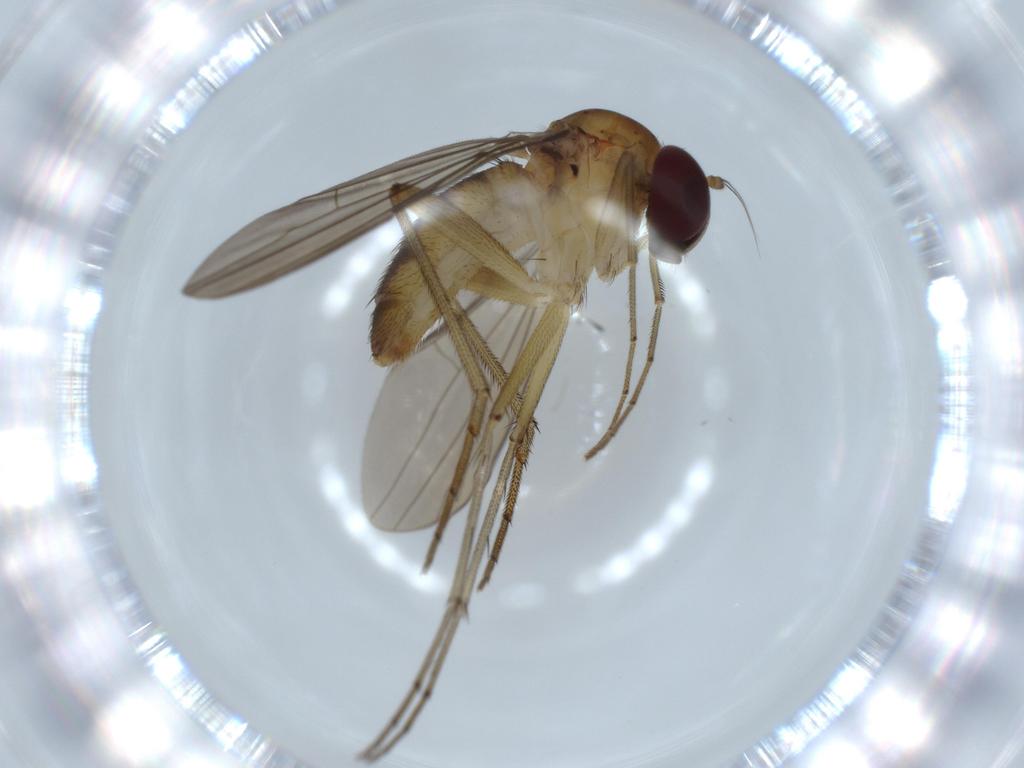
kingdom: Animalia
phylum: Arthropoda
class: Insecta
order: Diptera
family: Dolichopodidae
